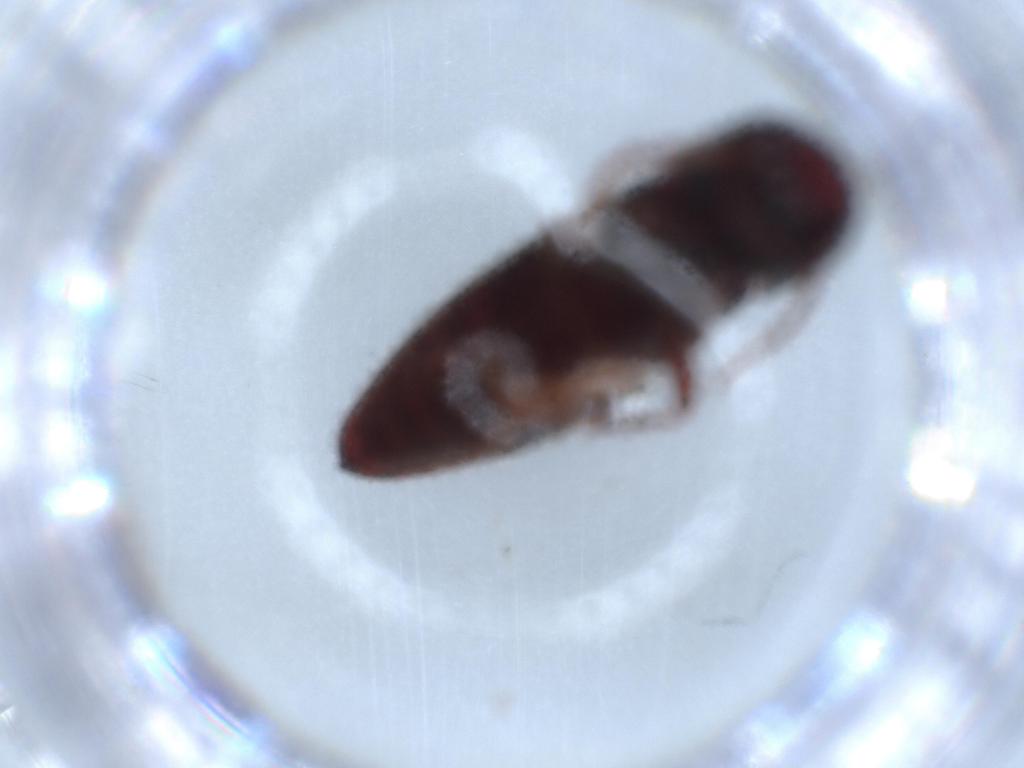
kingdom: Animalia
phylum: Arthropoda
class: Insecta
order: Coleoptera
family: Aderidae
